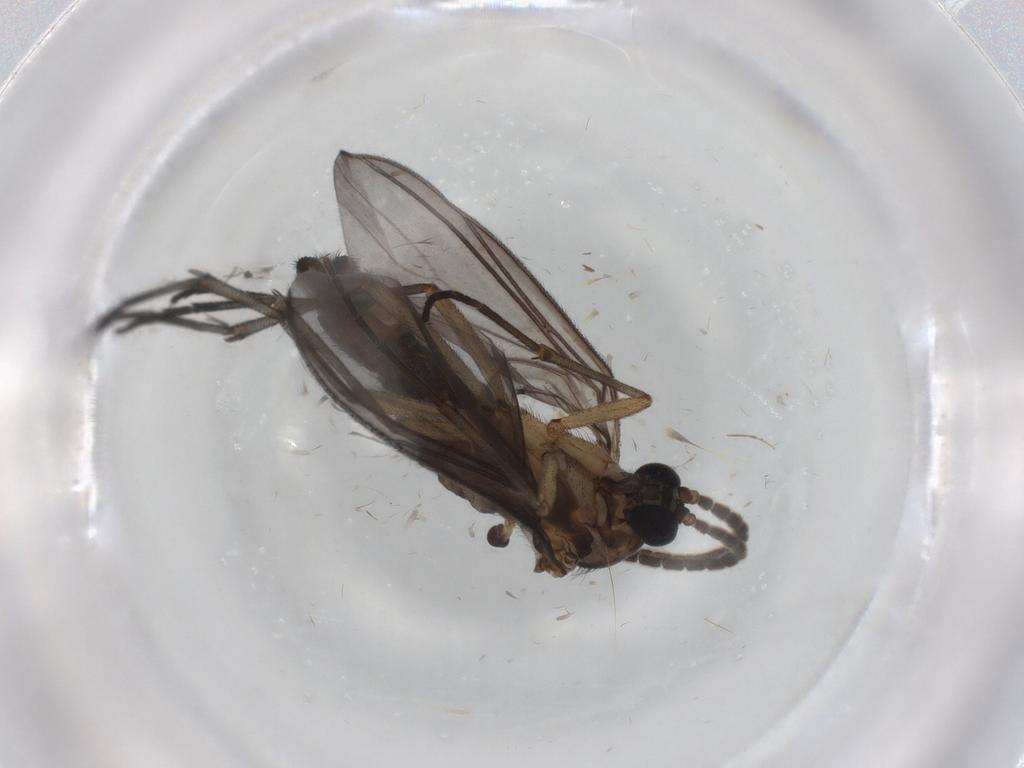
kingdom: Animalia
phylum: Arthropoda
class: Insecta
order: Diptera
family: Sciaridae
